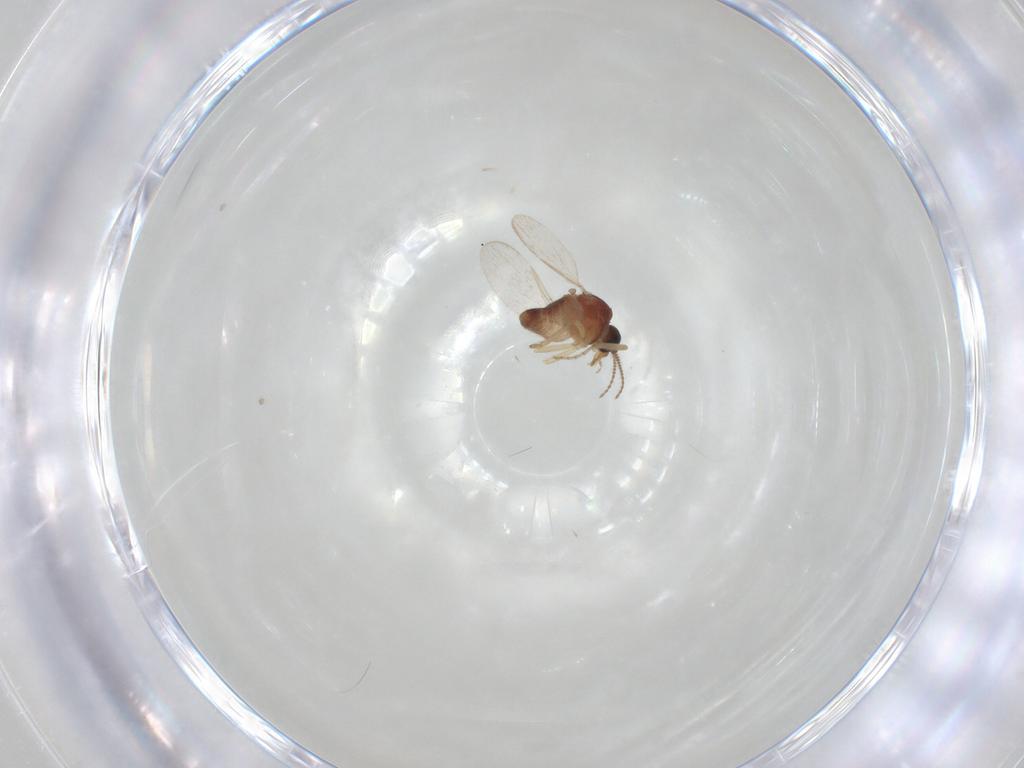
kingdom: Animalia
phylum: Arthropoda
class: Insecta
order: Diptera
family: Ceratopogonidae
